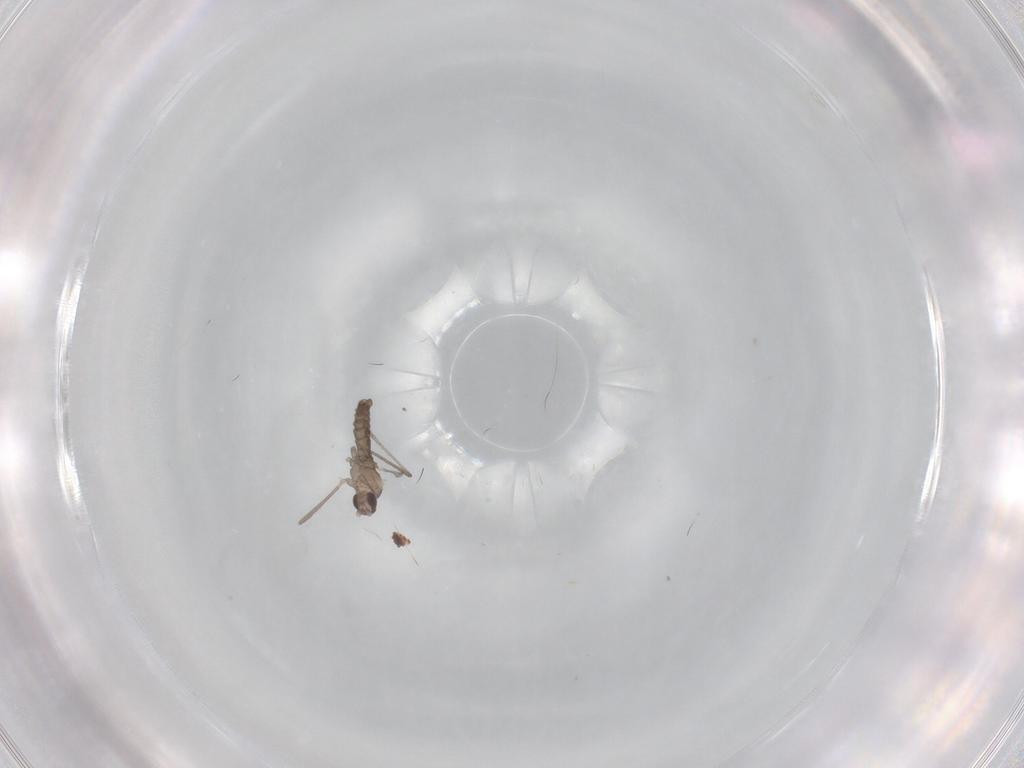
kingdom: Animalia
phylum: Arthropoda
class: Insecta
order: Diptera
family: Cecidomyiidae
